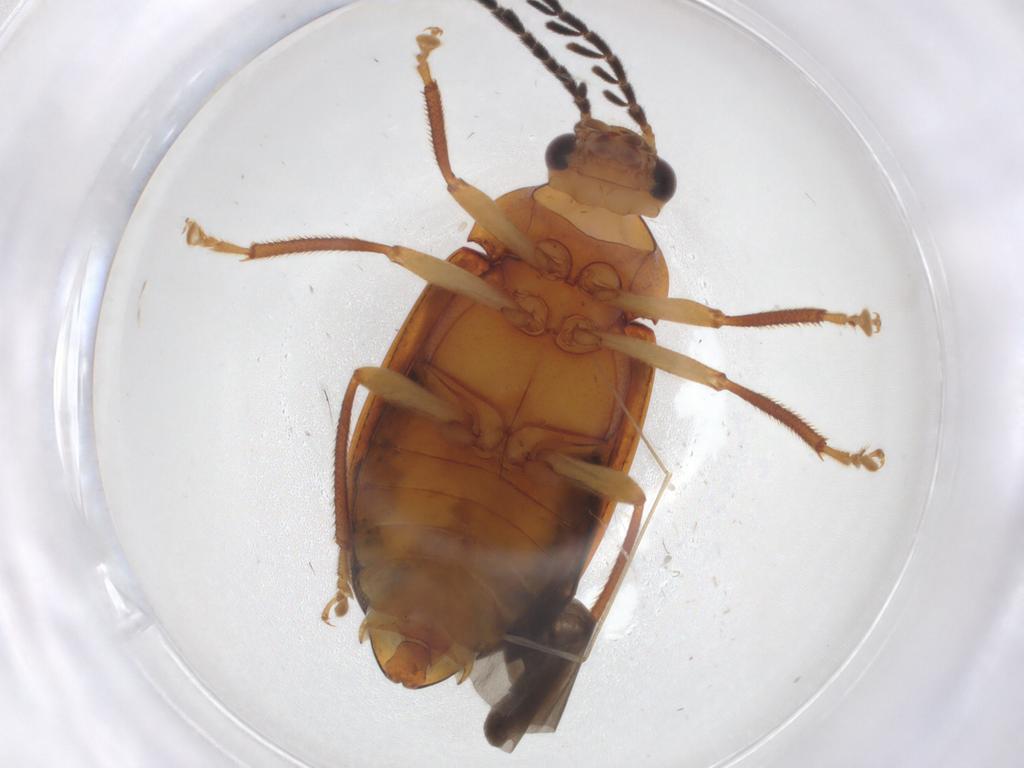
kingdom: Animalia
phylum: Arthropoda
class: Insecta
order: Coleoptera
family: Ptilodactylidae
